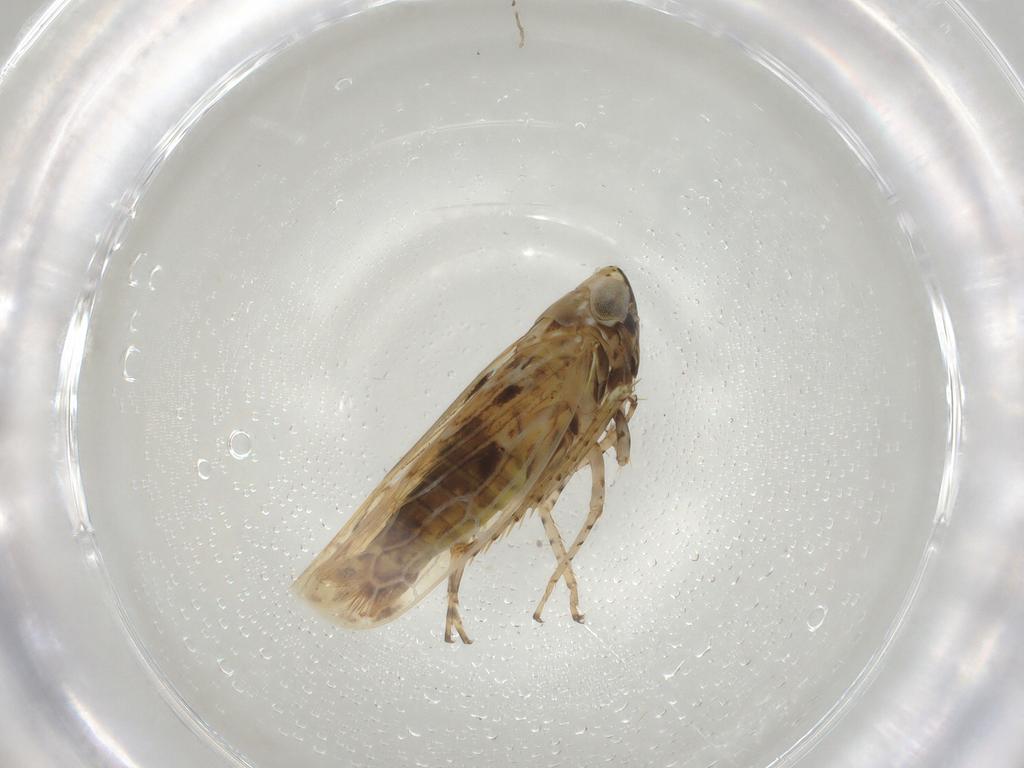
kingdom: Animalia
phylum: Arthropoda
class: Insecta
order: Hemiptera
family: Cicadellidae
